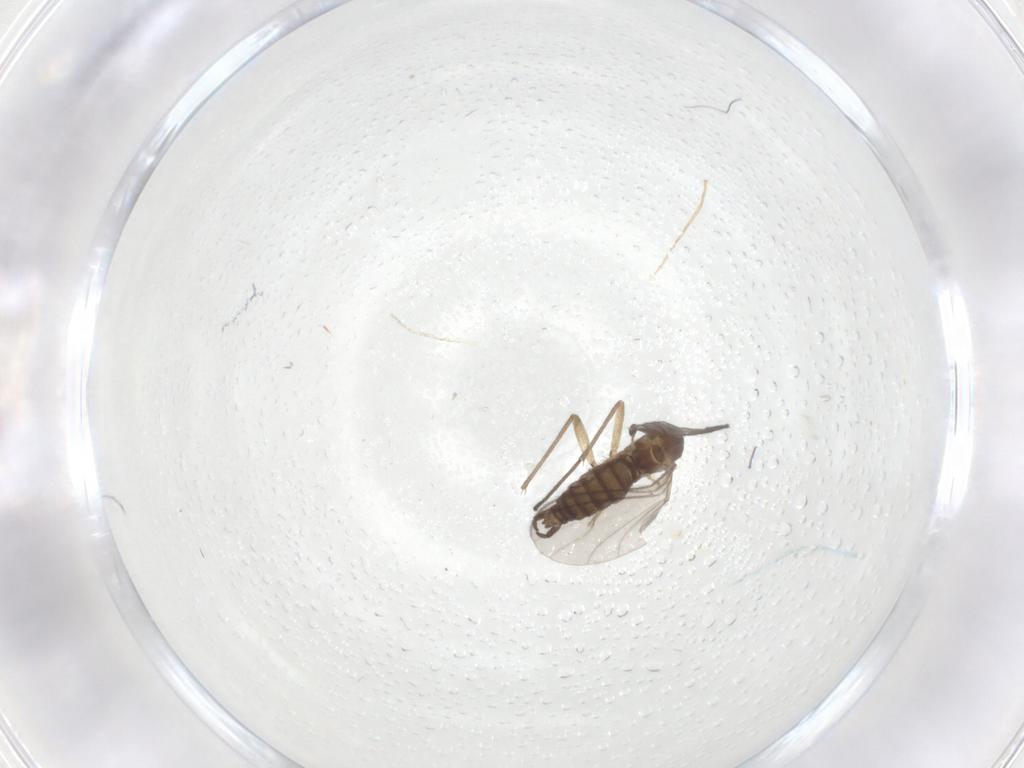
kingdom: Animalia
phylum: Arthropoda
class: Insecta
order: Diptera
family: Sciaridae
